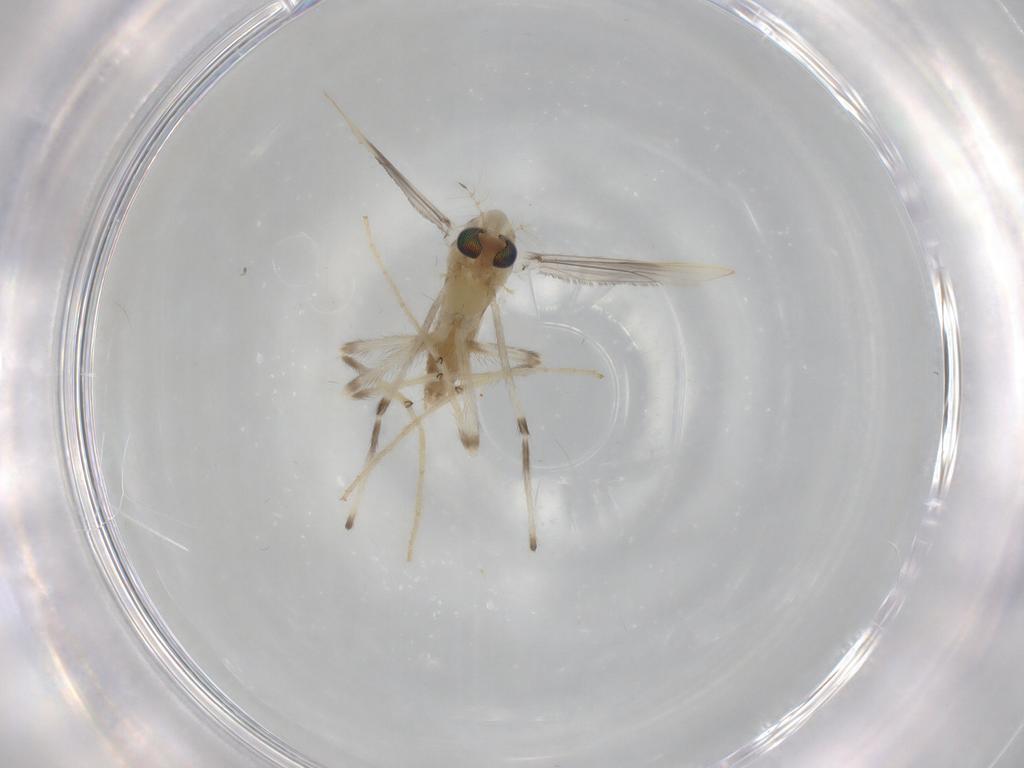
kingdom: Animalia
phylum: Arthropoda
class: Insecta
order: Diptera
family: Chironomidae
